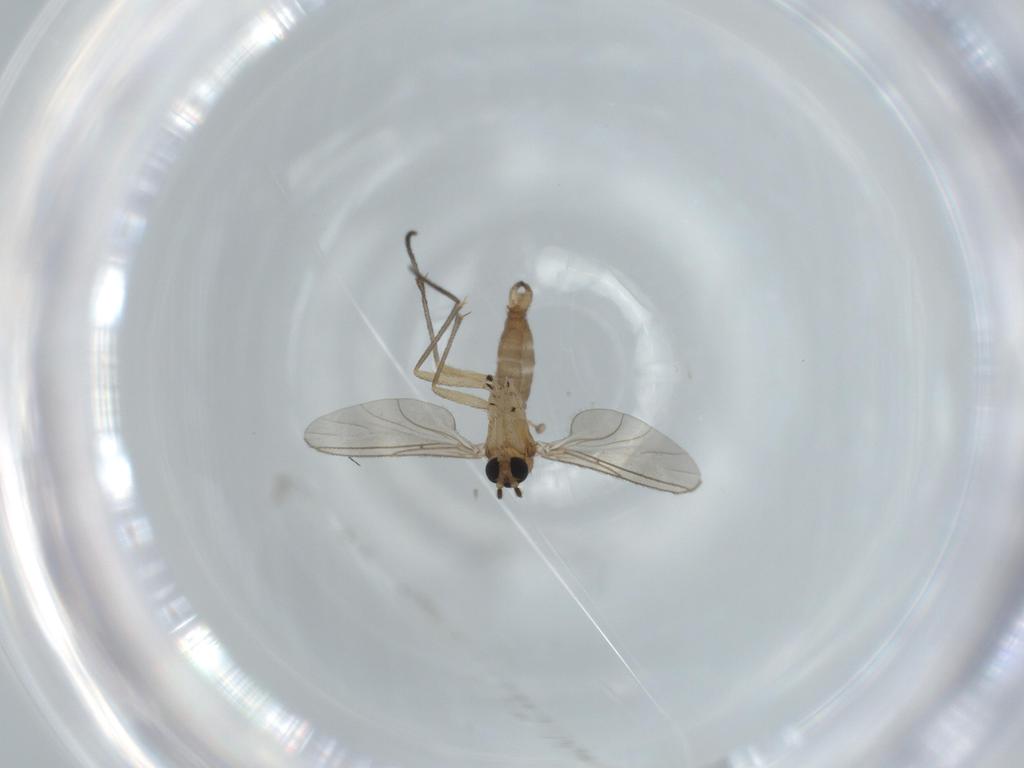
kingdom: Animalia
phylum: Arthropoda
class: Insecta
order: Diptera
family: Sciaridae
